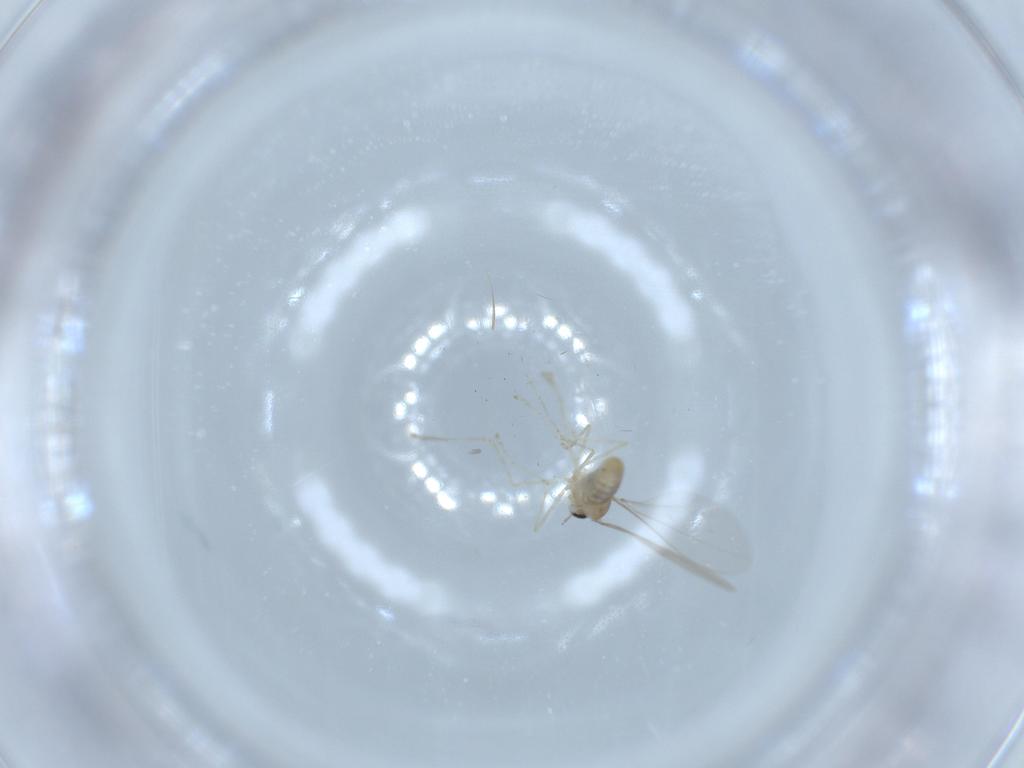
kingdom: Animalia
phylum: Arthropoda
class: Insecta
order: Diptera
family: Cecidomyiidae
